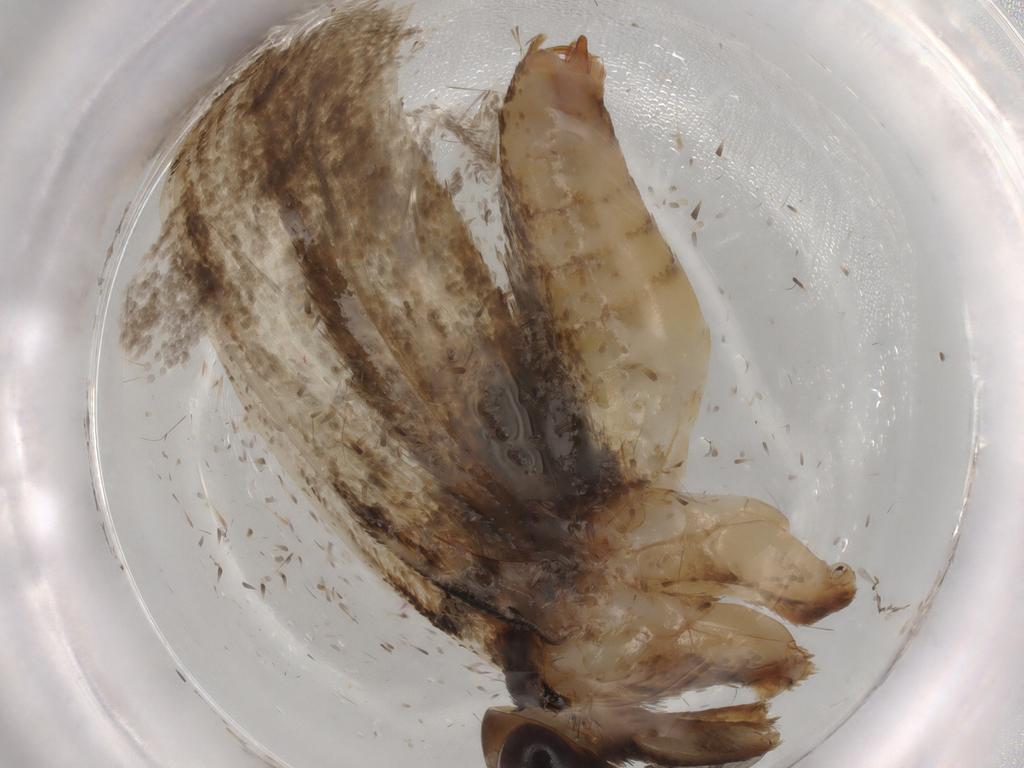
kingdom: Animalia
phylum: Arthropoda
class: Insecta
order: Lepidoptera
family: Tineidae
